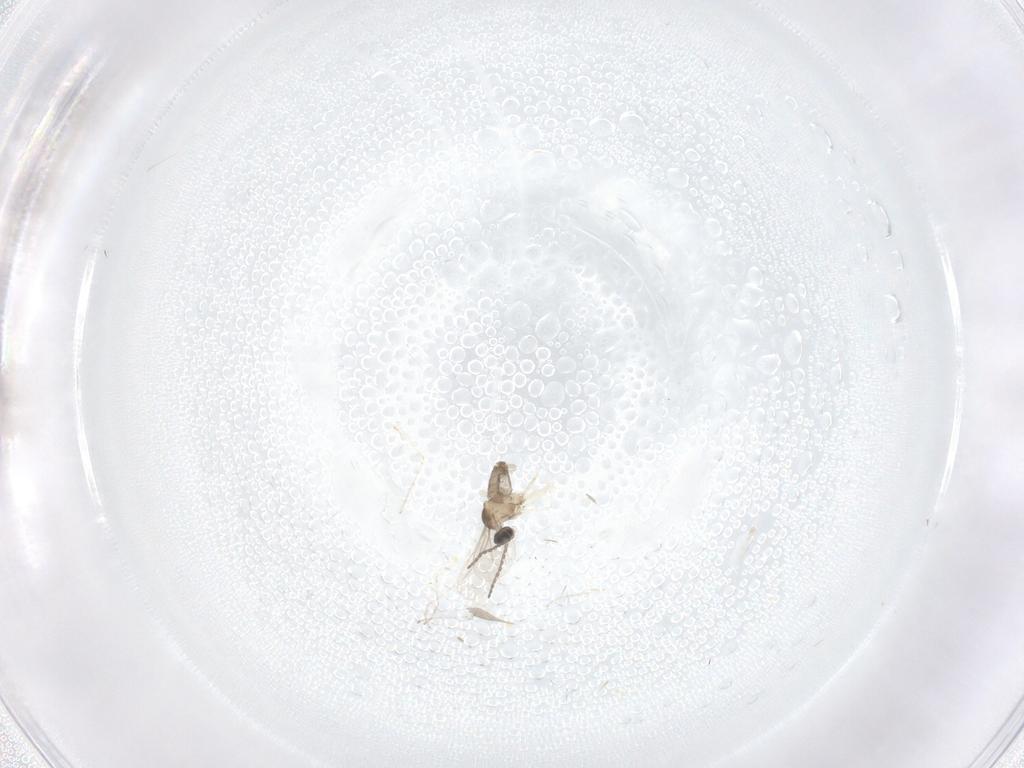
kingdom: Animalia
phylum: Arthropoda
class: Insecta
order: Diptera
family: Cecidomyiidae
